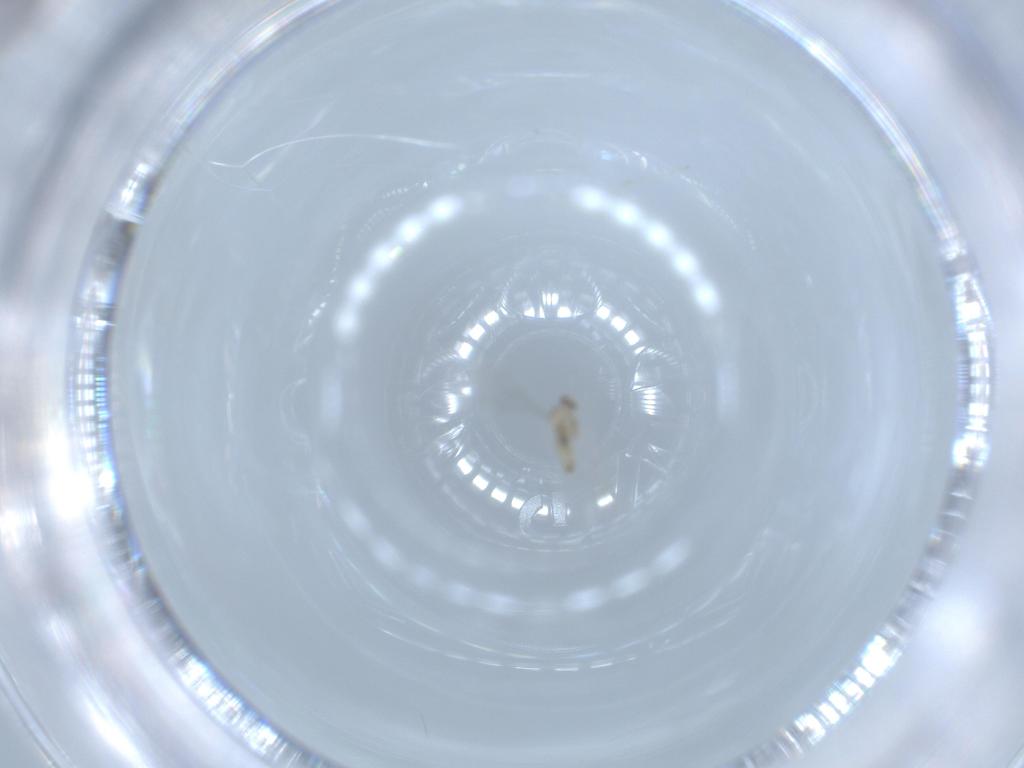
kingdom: Animalia
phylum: Arthropoda
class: Insecta
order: Diptera
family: Cecidomyiidae
